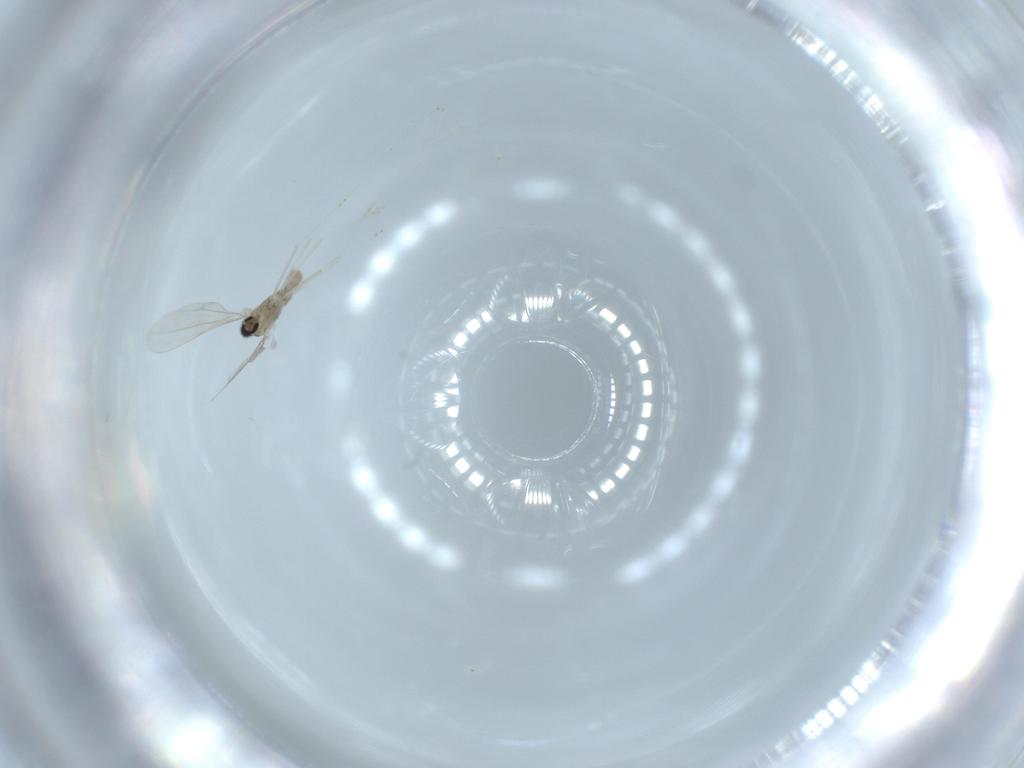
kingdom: Animalia
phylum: Arthropoda
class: Insecta
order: Diptera
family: Cecidomyiidae
